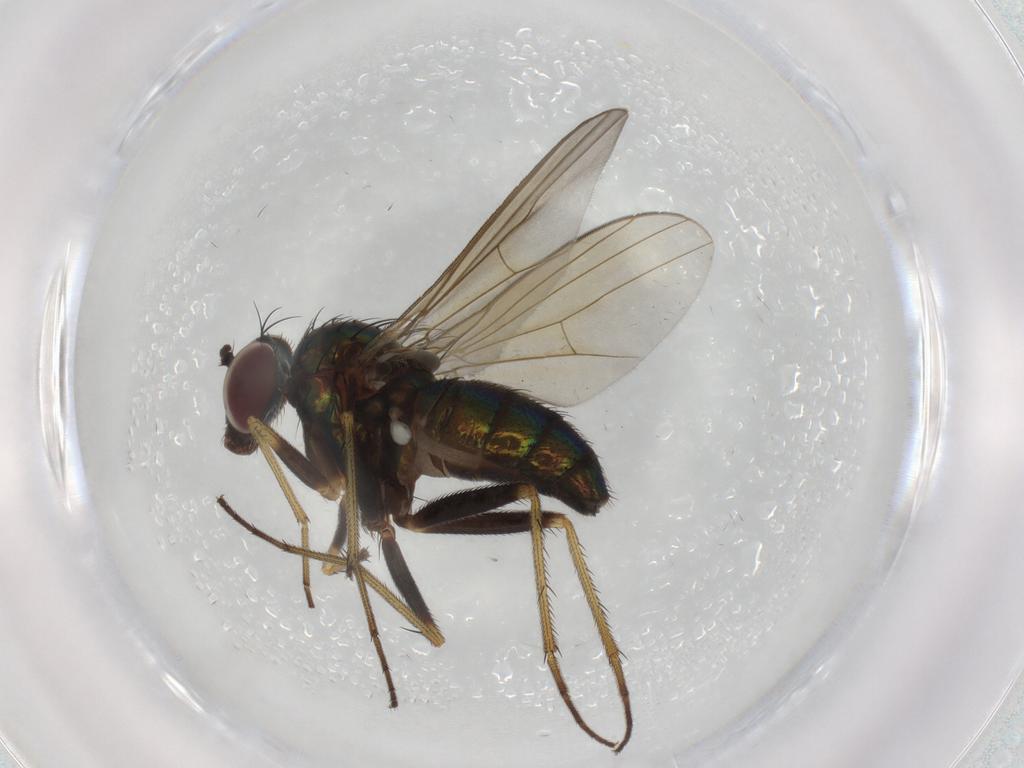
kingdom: Animalia
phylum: Arthropoda
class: Insecta
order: Diptera
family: Dolichopodidae
